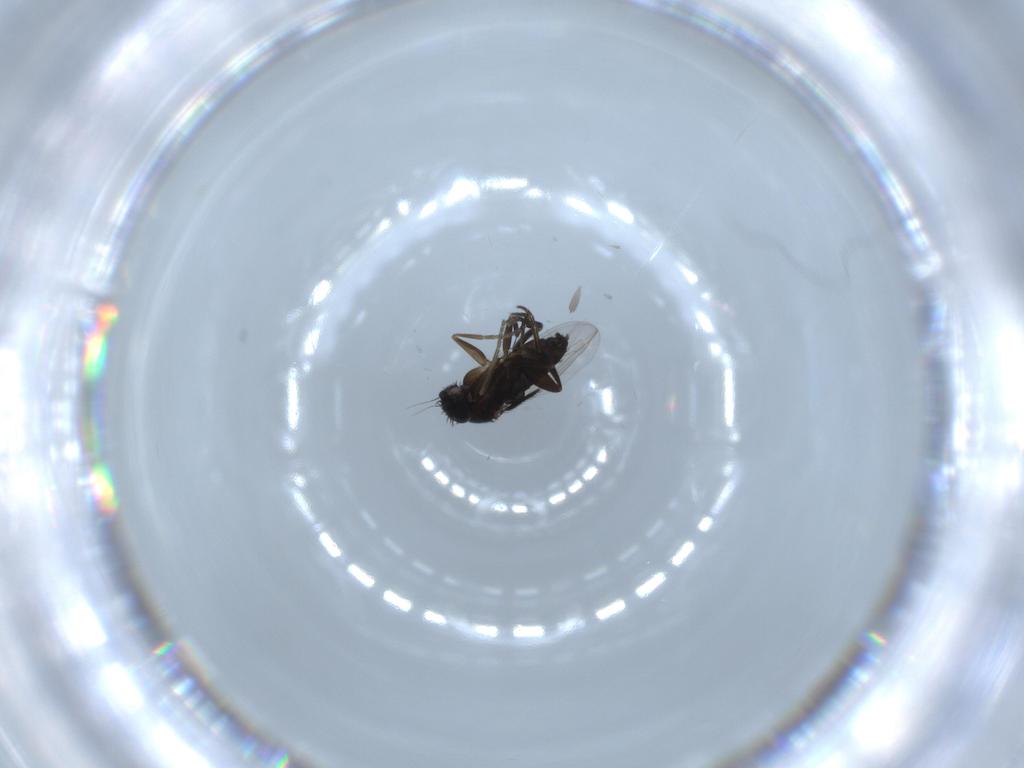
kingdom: Animalia
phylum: Arthropoda
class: Insecta
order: Diptera
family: Phoridae
